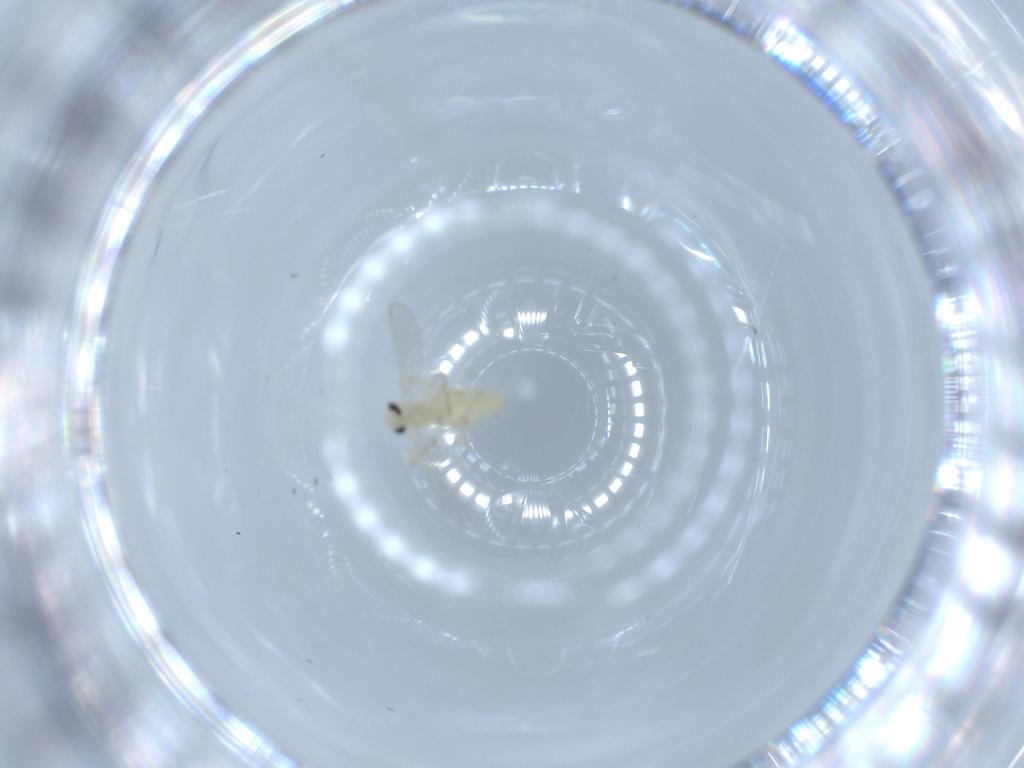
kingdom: Animalia
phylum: Arthropoda
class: Insecta
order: Diptera
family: Chironomidae
